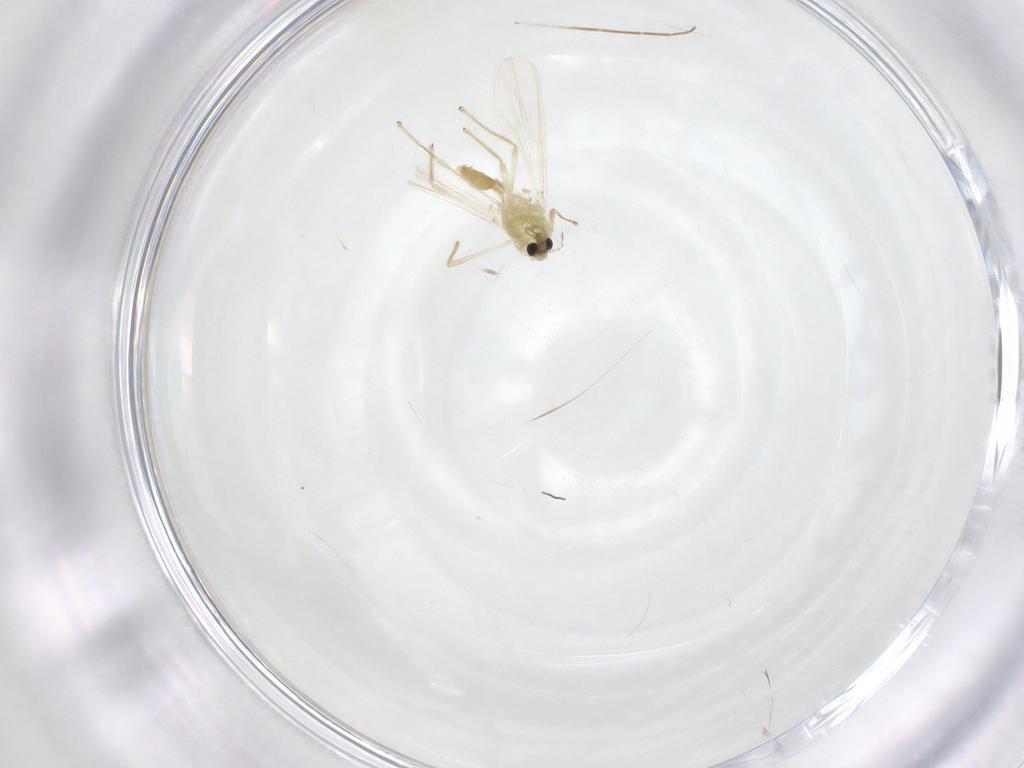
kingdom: Animalia
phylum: Arthropoda
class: Insecta
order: Diptera
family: Chironomidae
